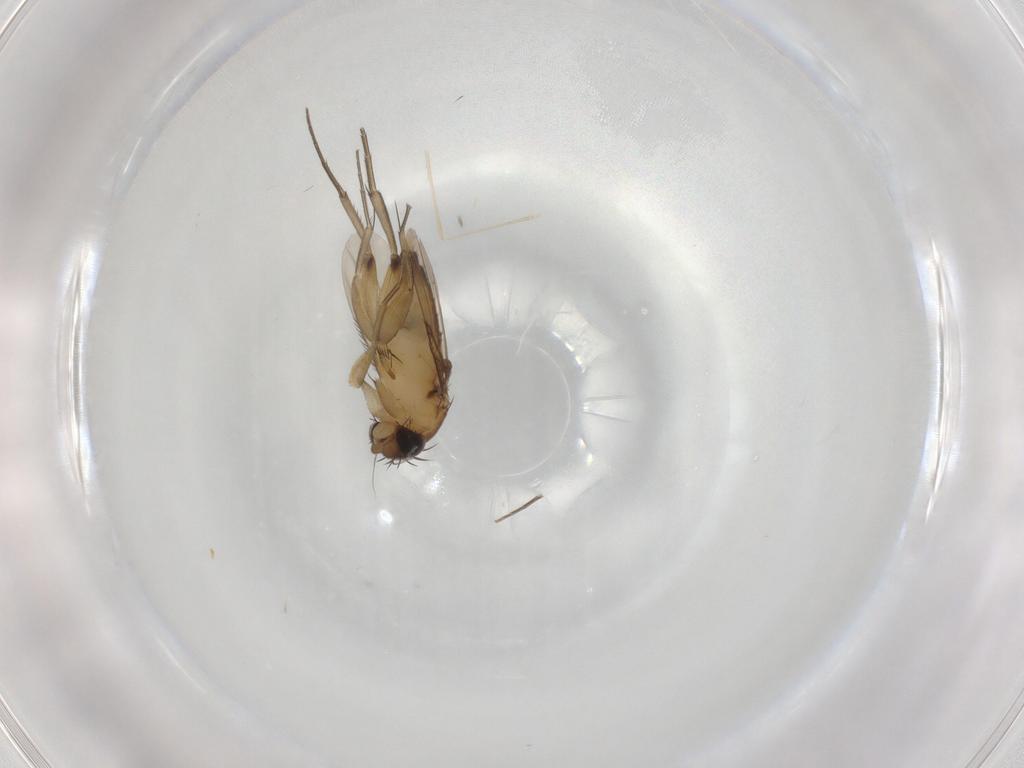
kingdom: Animalia
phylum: Arthropoda
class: Insecta
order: Diptera
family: Phoridae
